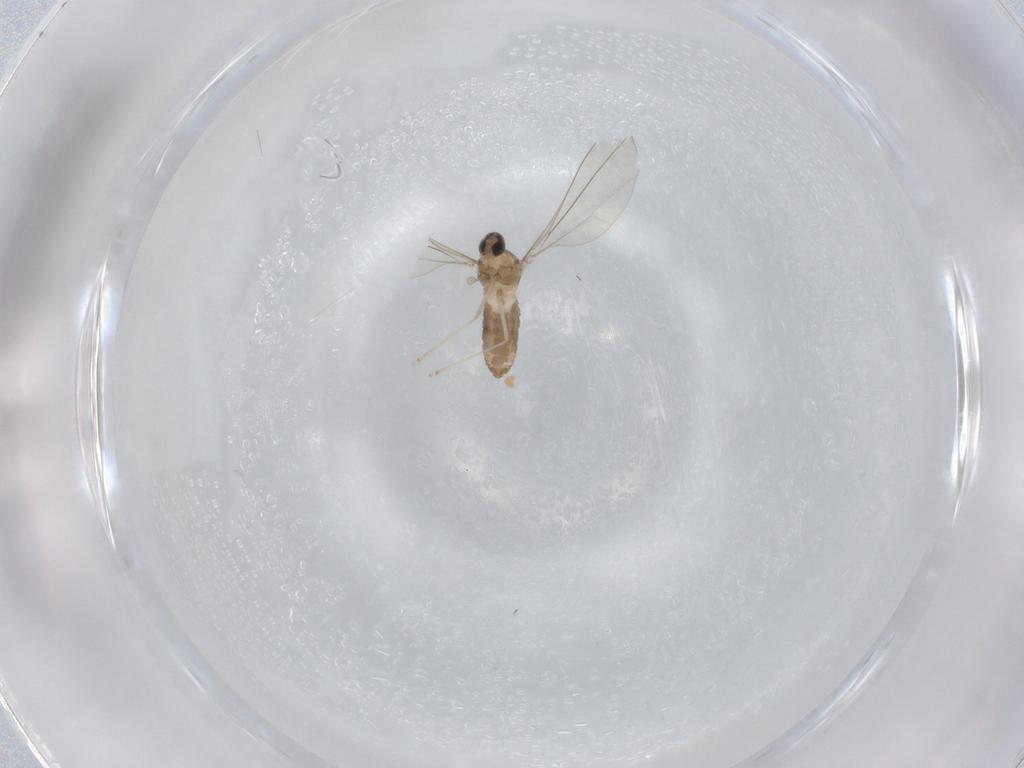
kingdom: Animalia
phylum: Arthropoda
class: Insecta
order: Diptera
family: Cecidomyiidae
